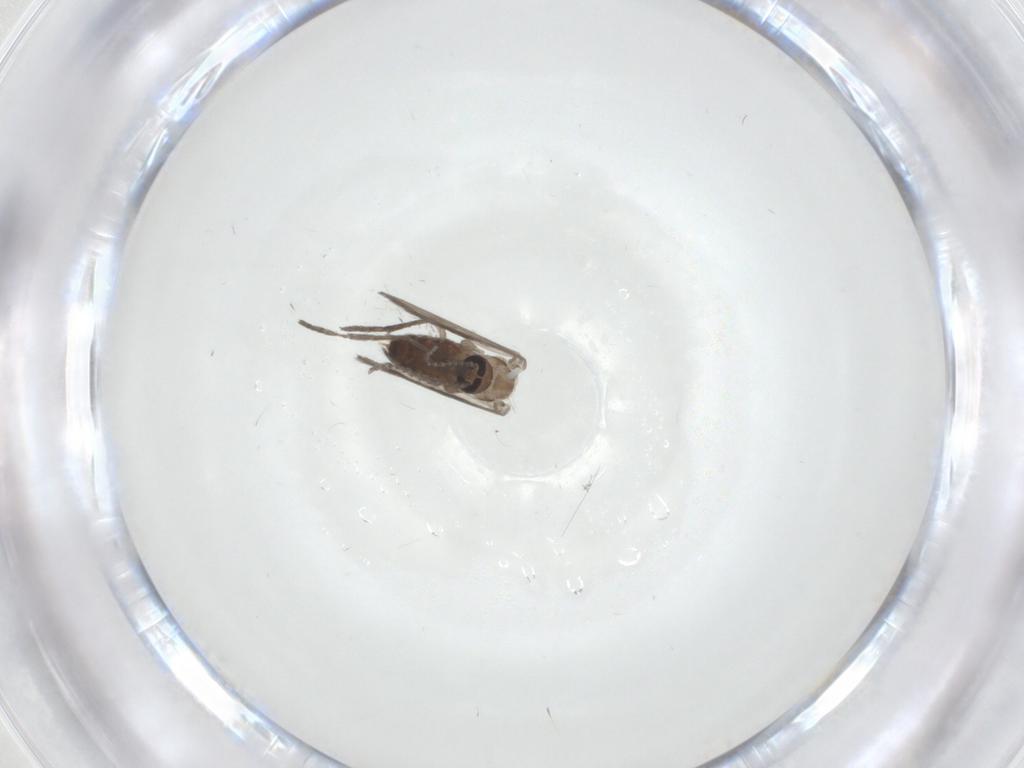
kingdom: Animalia
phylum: Arthropoda
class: Insecta
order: Diptera
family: Psychodidae
